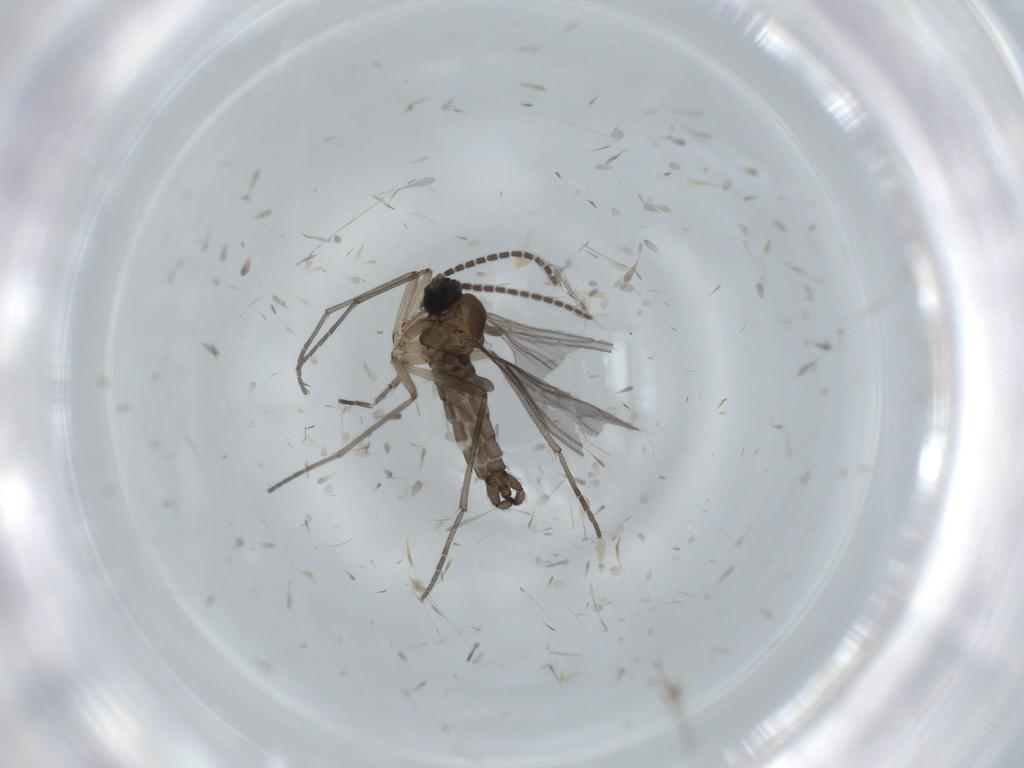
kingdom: Animalia
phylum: Arthropoda
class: Insecta
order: Diptera
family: Sciaridae
